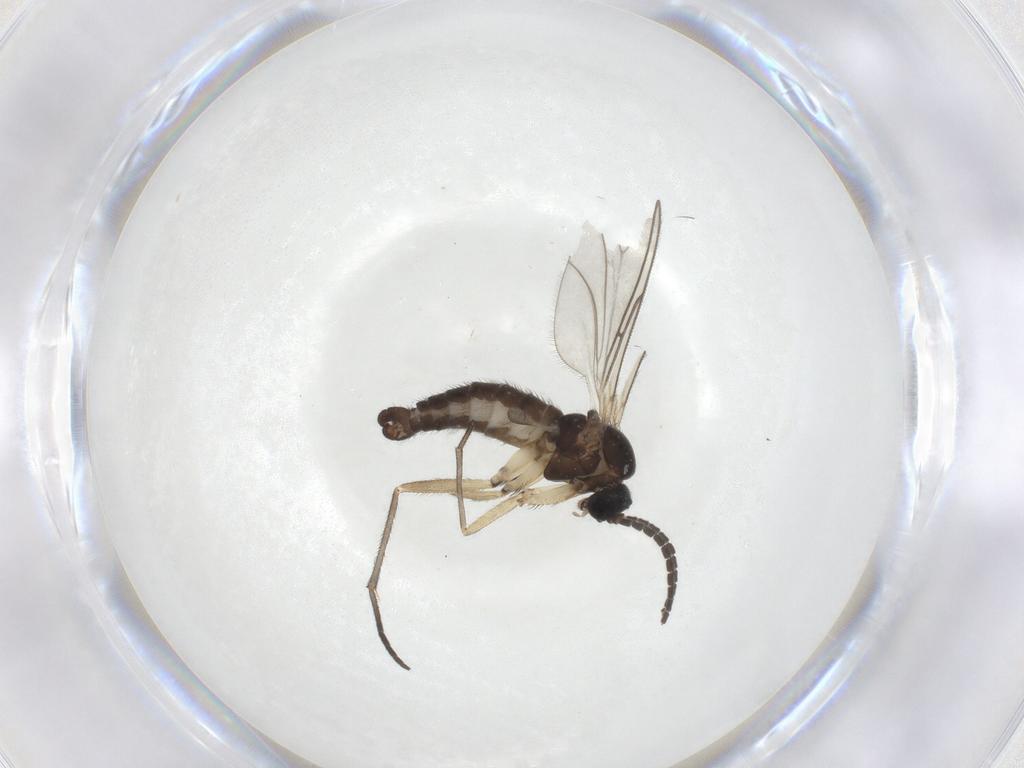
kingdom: Animalia
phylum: Arthropoda
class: Insecta
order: Diptera
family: Sciaridae
